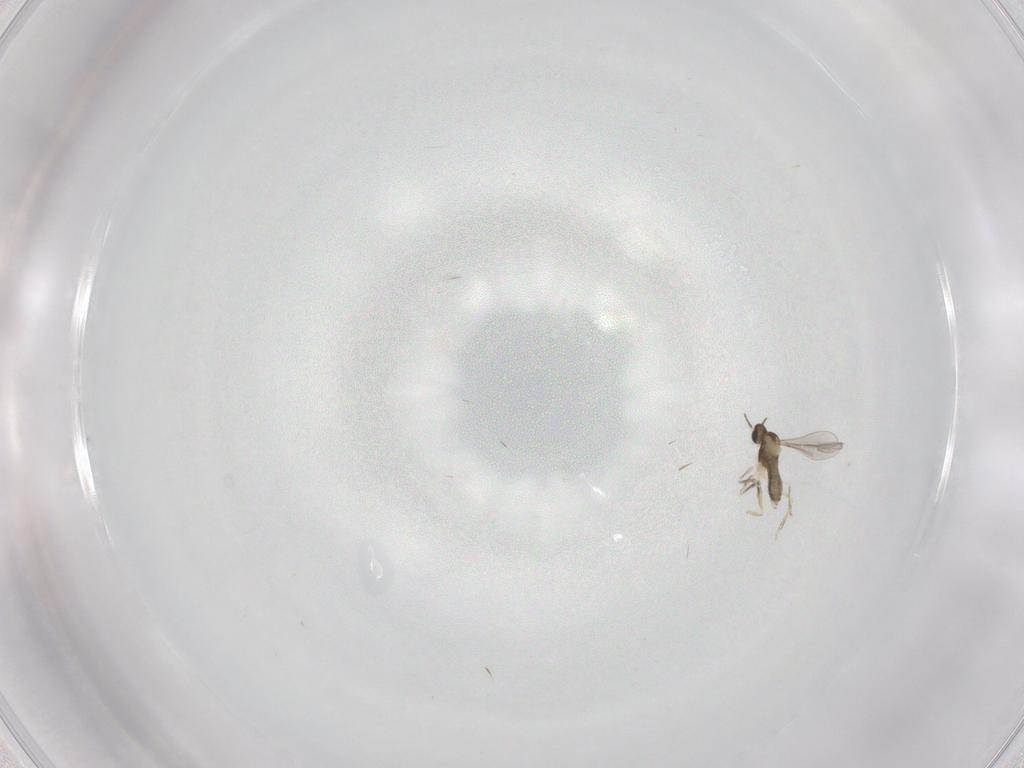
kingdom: Animalia
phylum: Arthropoda
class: Insecta
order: Diptera
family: Cecidomyiidae
